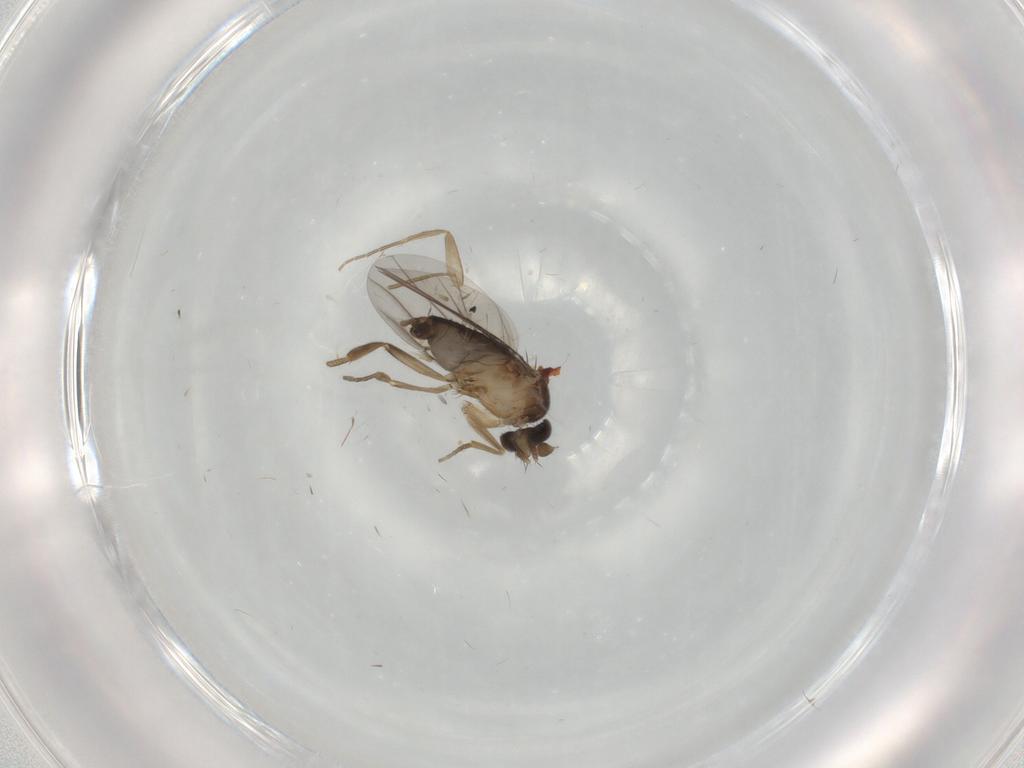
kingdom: Animalia
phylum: Arthropoda
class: Insecta
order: Diptera
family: Phoridae
